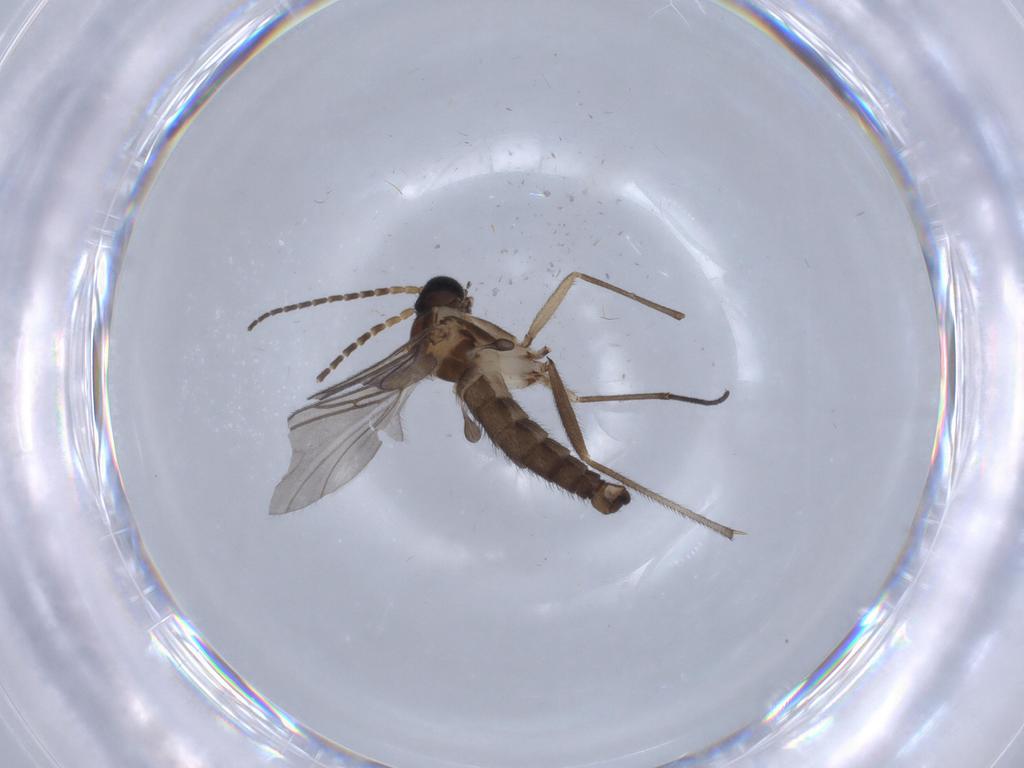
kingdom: Animalia
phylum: Arthropoda
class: Insecta
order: Diptera
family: Sciaridae
